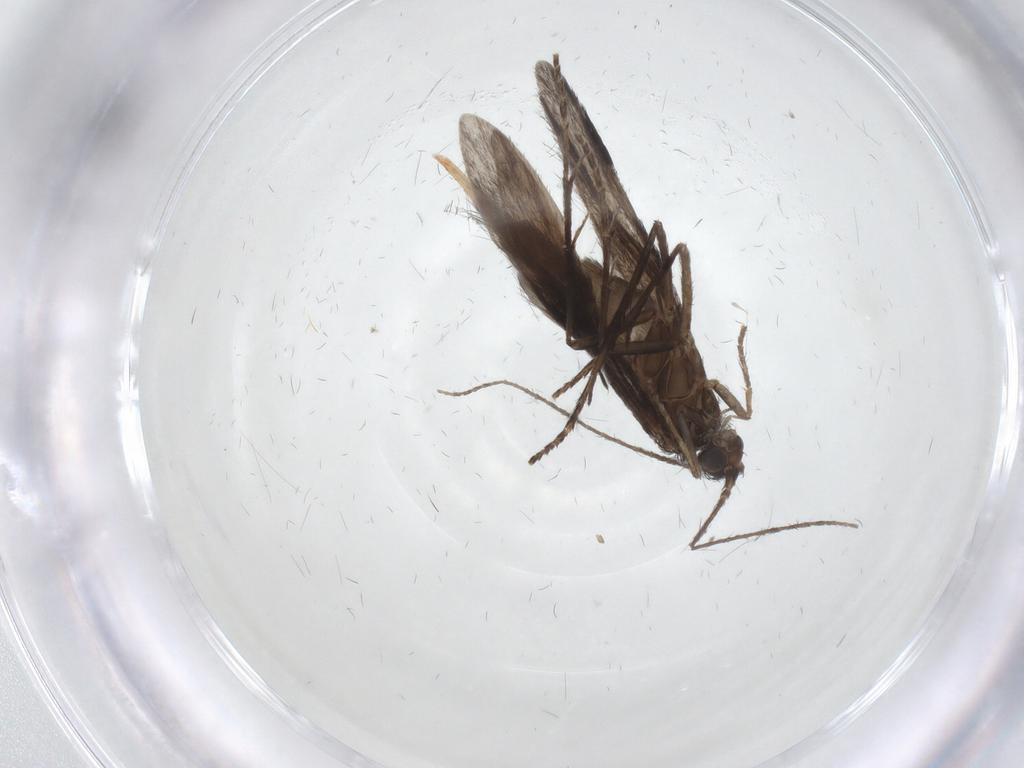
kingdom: Animalia
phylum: Arthropoda
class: Insecta
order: Trichoptera
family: Xiphocentronidae
